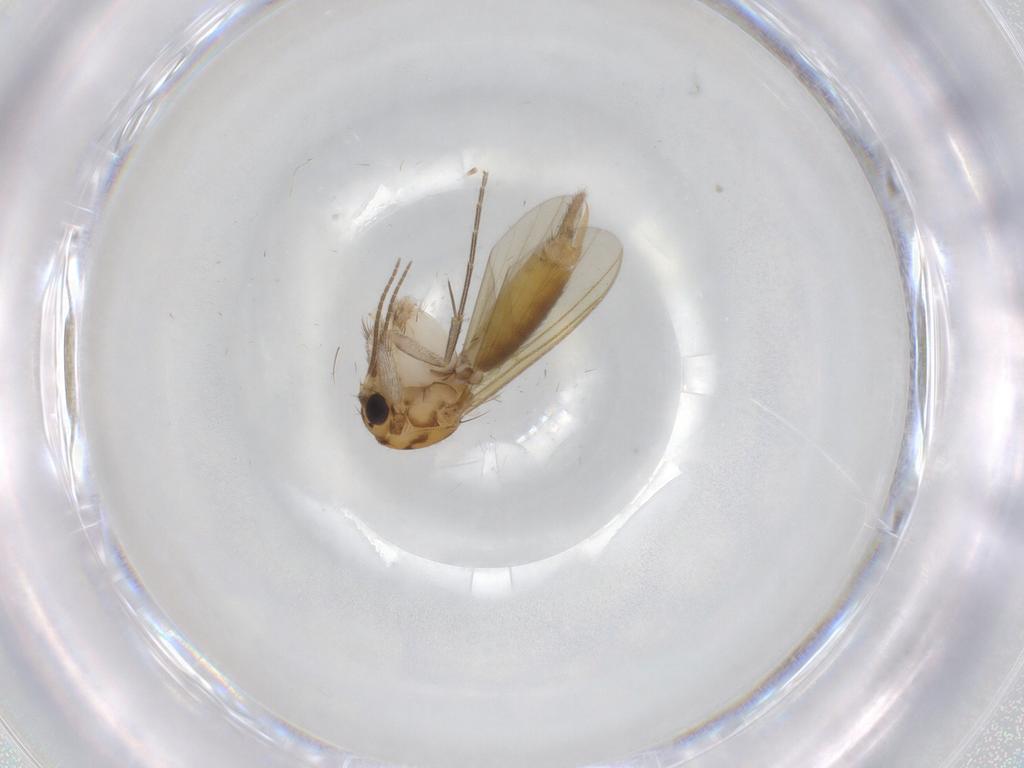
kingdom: Animalia
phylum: Arthropoda
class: Insecta
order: Diptera
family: Mycetophilidae
